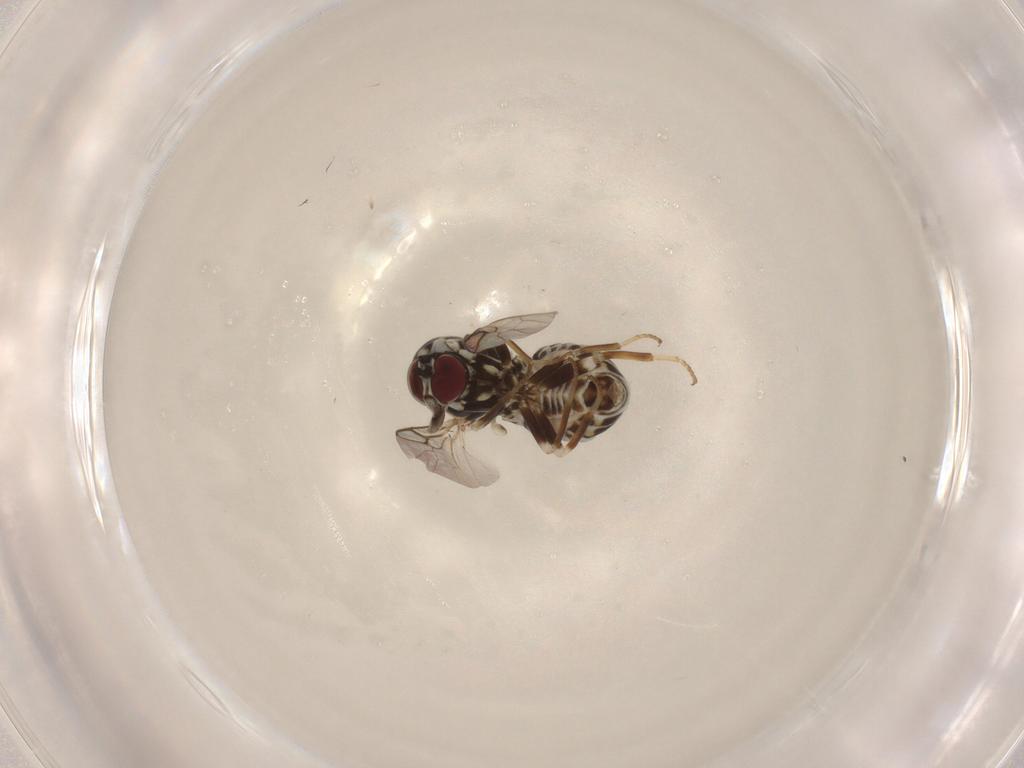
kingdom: Animalia
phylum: Arthropoda
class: Insecta
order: Diptera
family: Bombyliidae
